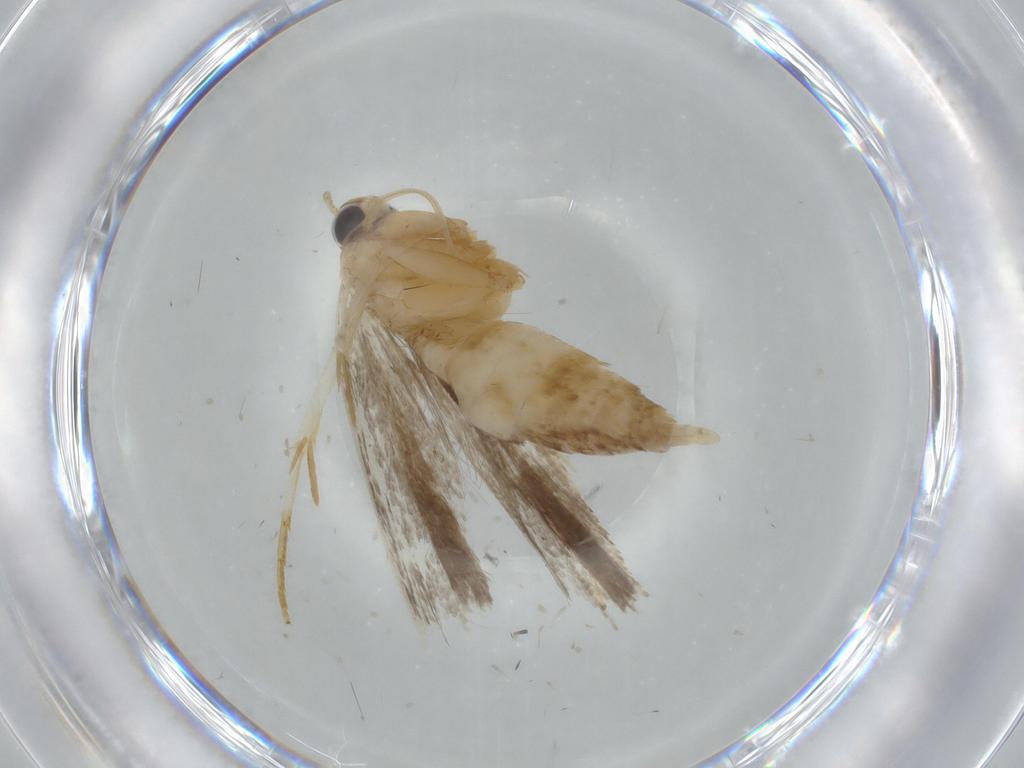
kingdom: Animalia
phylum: Arthropoda
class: Insecta
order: Lepidoptera
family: Gelechiidae
